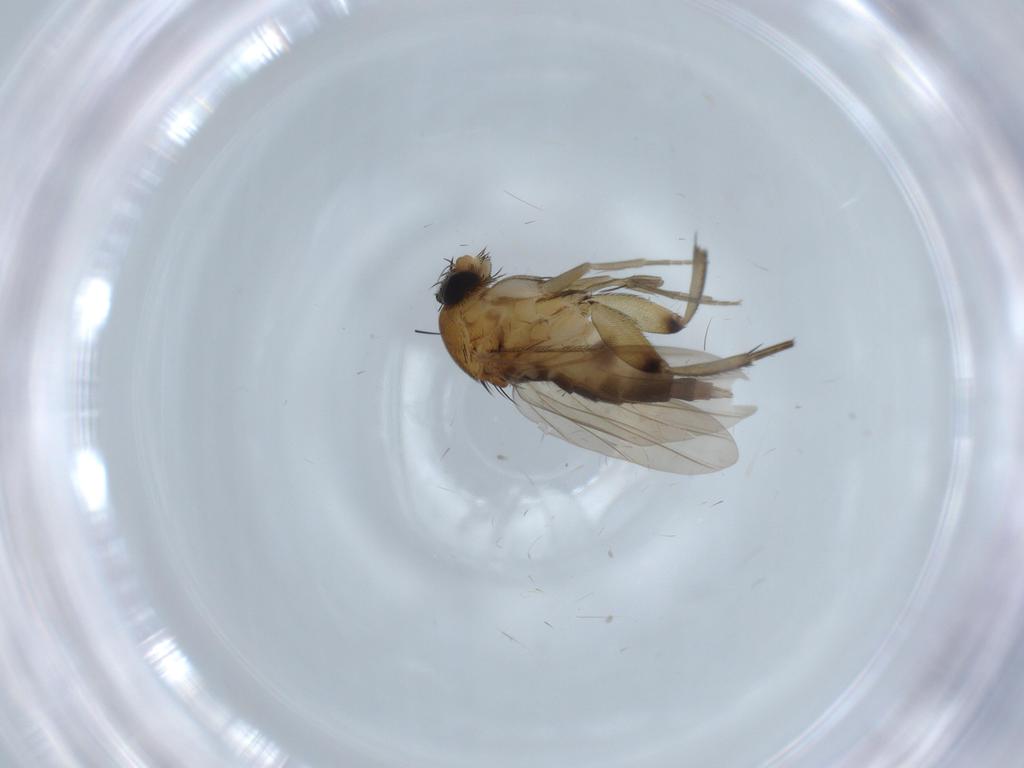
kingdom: Animalia
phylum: Arthropoda
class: Insecta
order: Diptera
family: Phoridae
